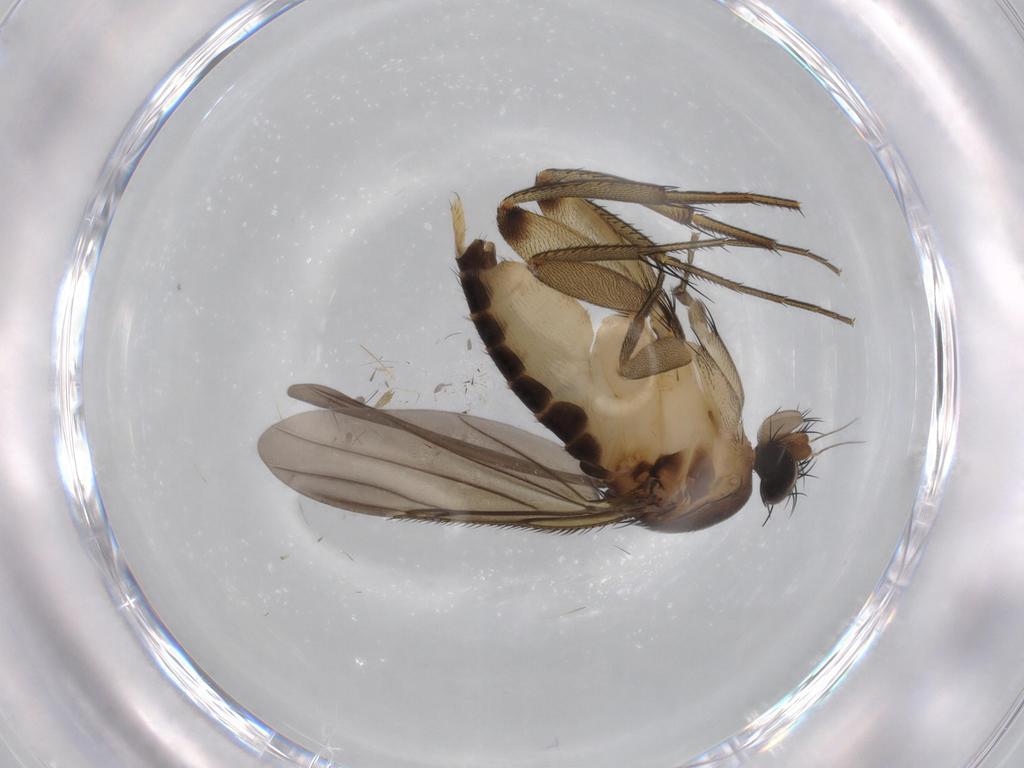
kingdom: Animalia
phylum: Arthropoda
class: Insecta
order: Diptera
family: Phoridae
